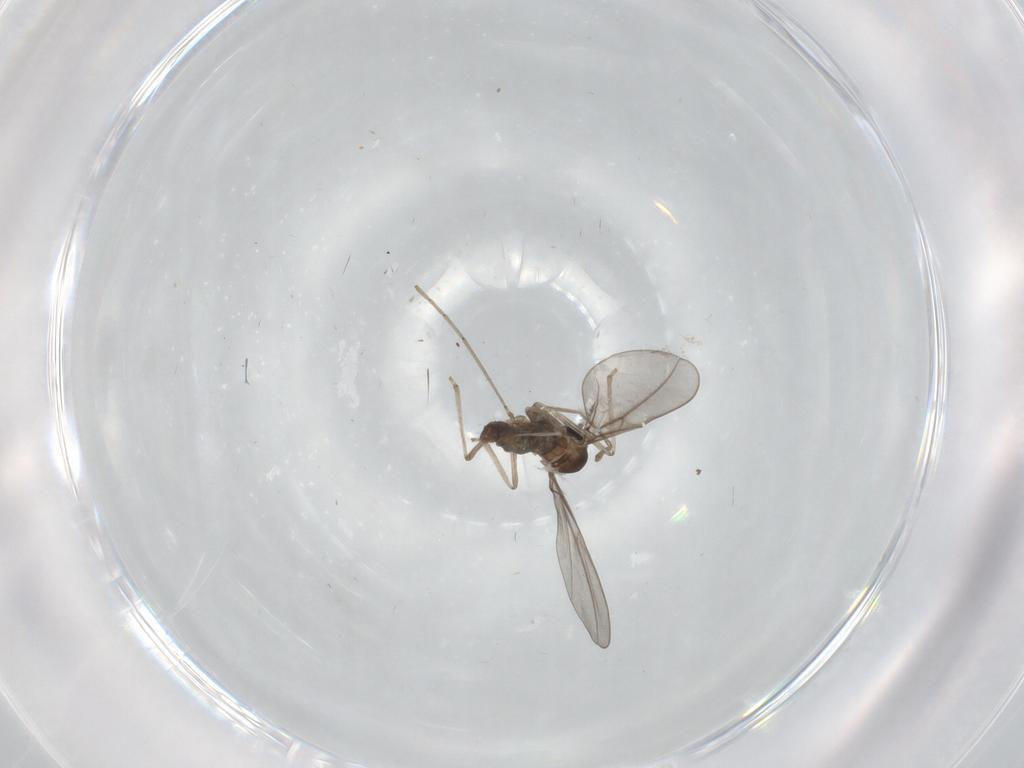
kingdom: Animalia
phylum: Arthropoda
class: Insecta
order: Diptera
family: Cecidomyiidae
